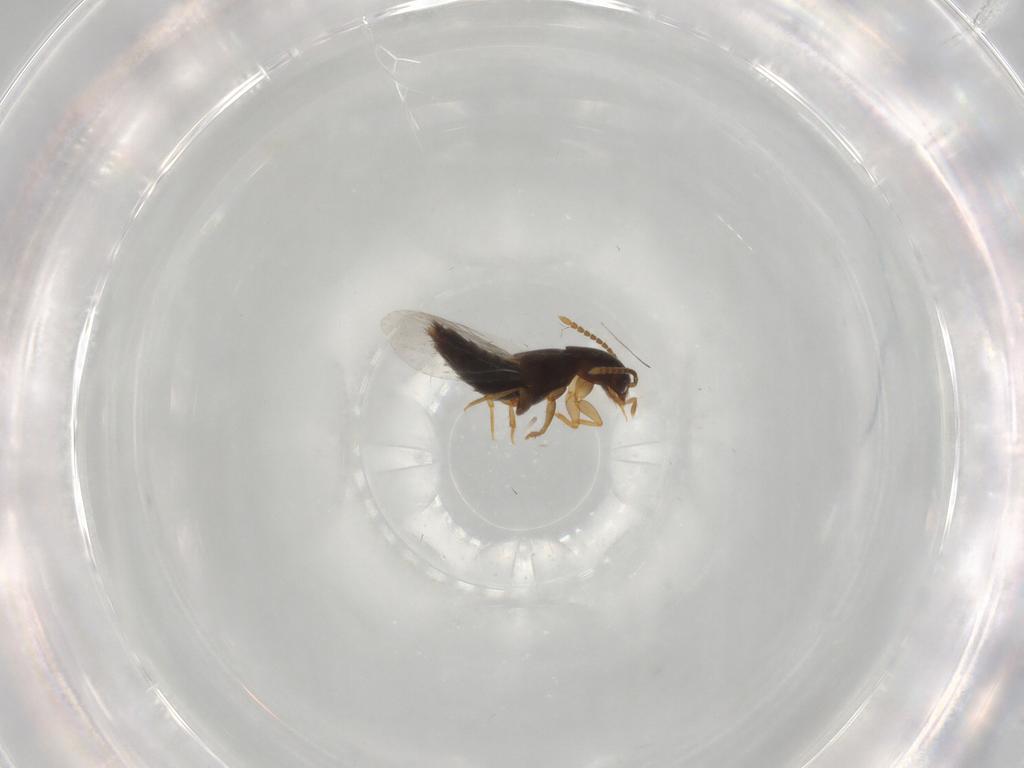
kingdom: Animalia
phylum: Arthropoda
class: Insecta
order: Coleoptera
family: Staphylinidae
